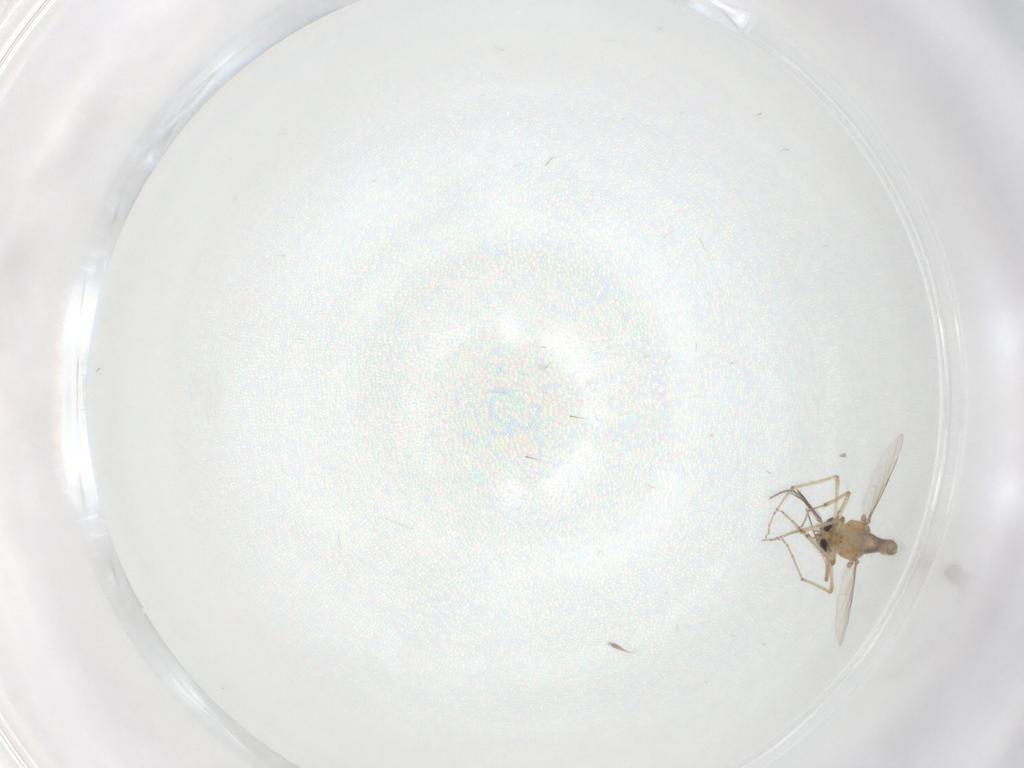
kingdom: Animalia
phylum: Arthropoda
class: Insecta
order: Diptera
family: Ceratopogonidae
